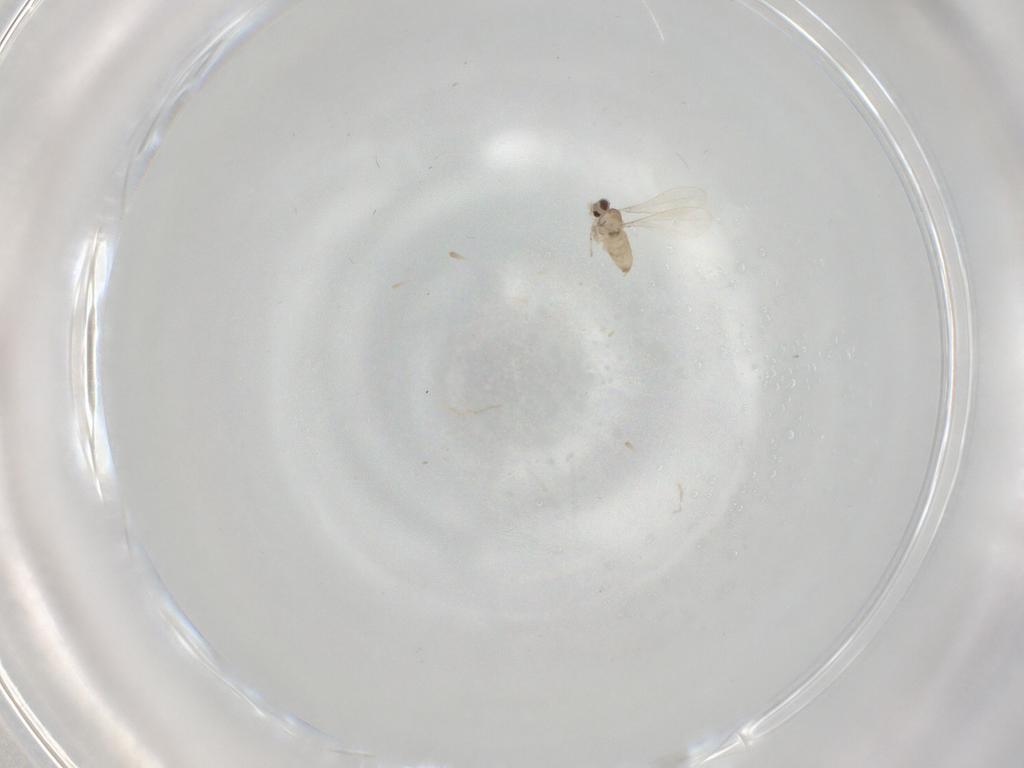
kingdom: Animalia
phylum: Arthropoda
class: Insecta
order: Diptera
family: Cecidomyiidae
